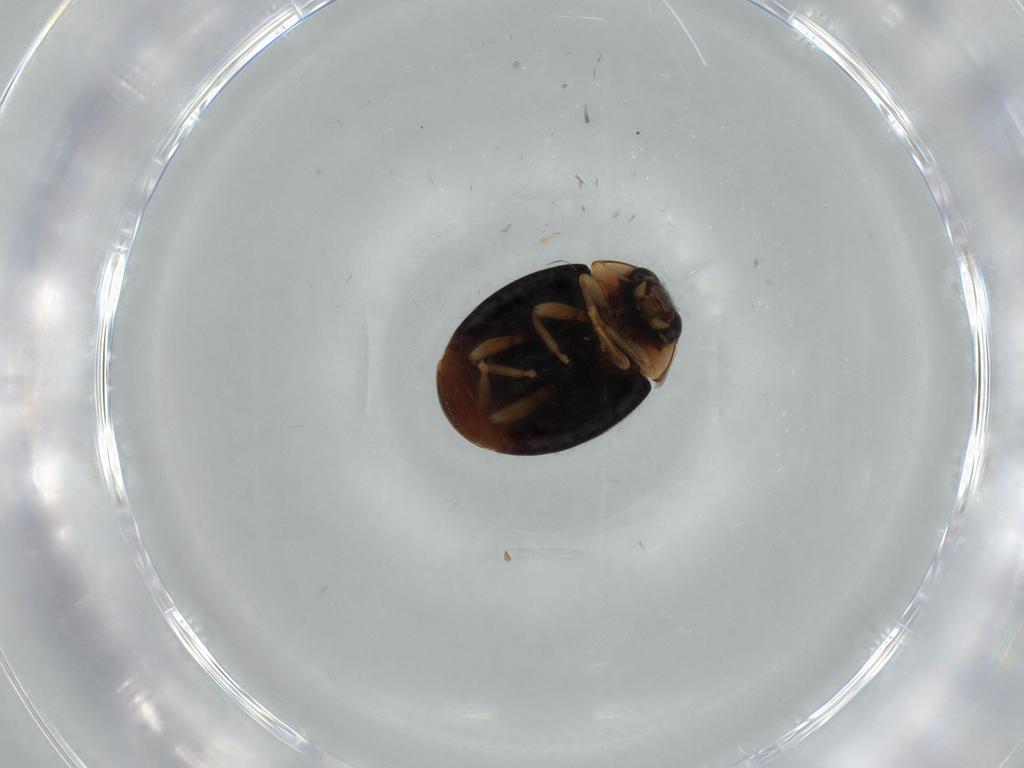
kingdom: Animalia
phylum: Arthropoda
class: Insecta
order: Coleoptera
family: Coccinellidae
